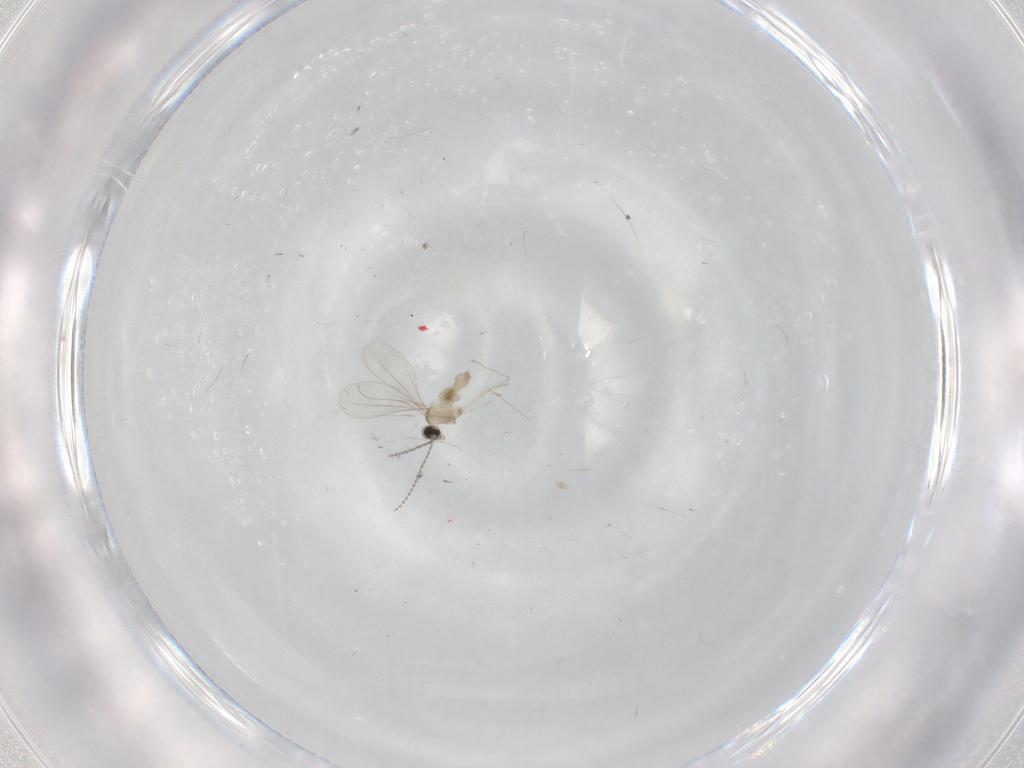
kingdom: Animalia
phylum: Arthropoda
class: Insecta
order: Diptera
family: Cecidomyiidae
